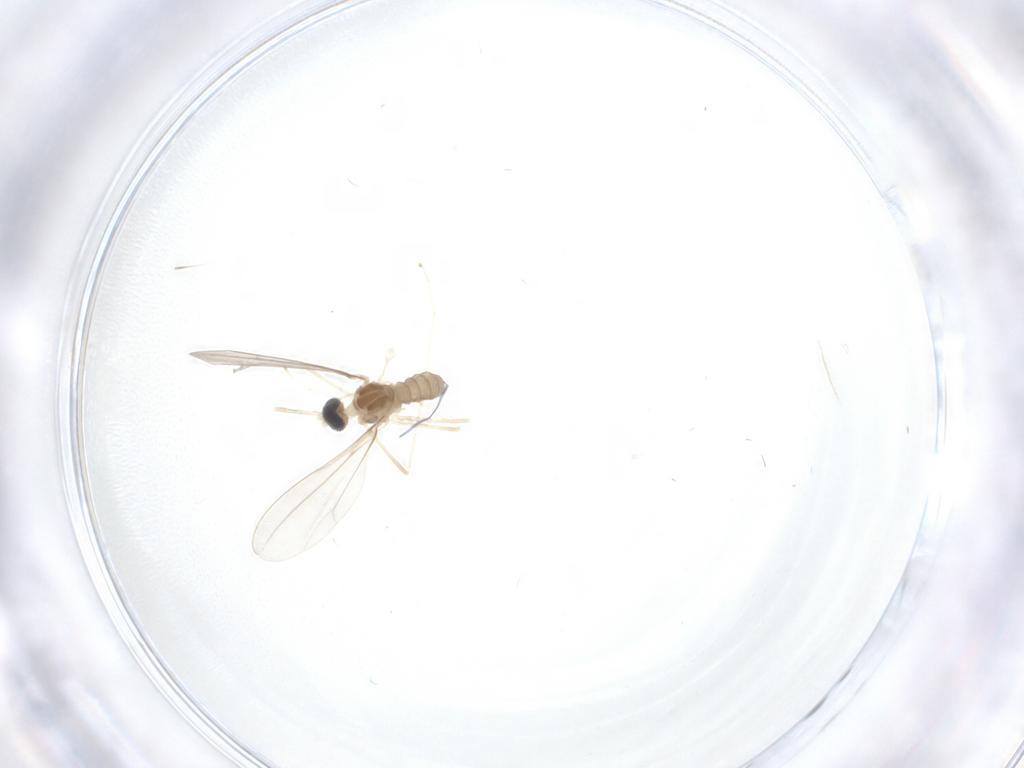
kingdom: Animalia
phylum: Arthropoda
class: Insecta
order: Diptera
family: Cecidomyiidae
